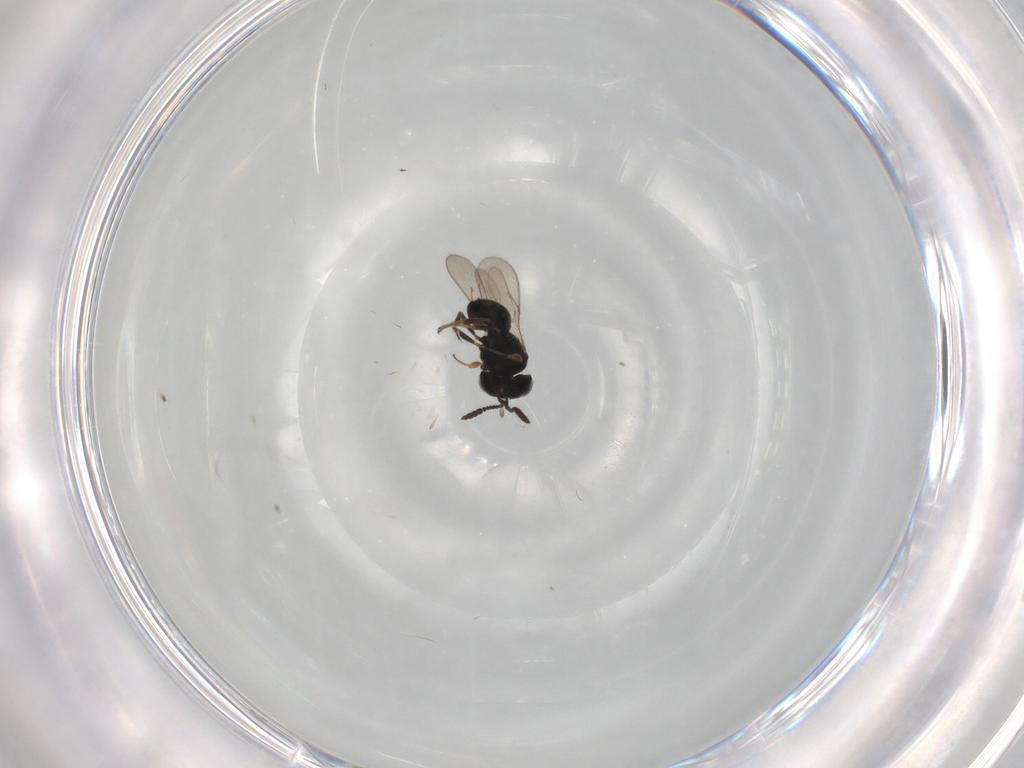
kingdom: Animalia
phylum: Arthropoda
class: Insecta
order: Hymenoptera
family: Scelionidae
